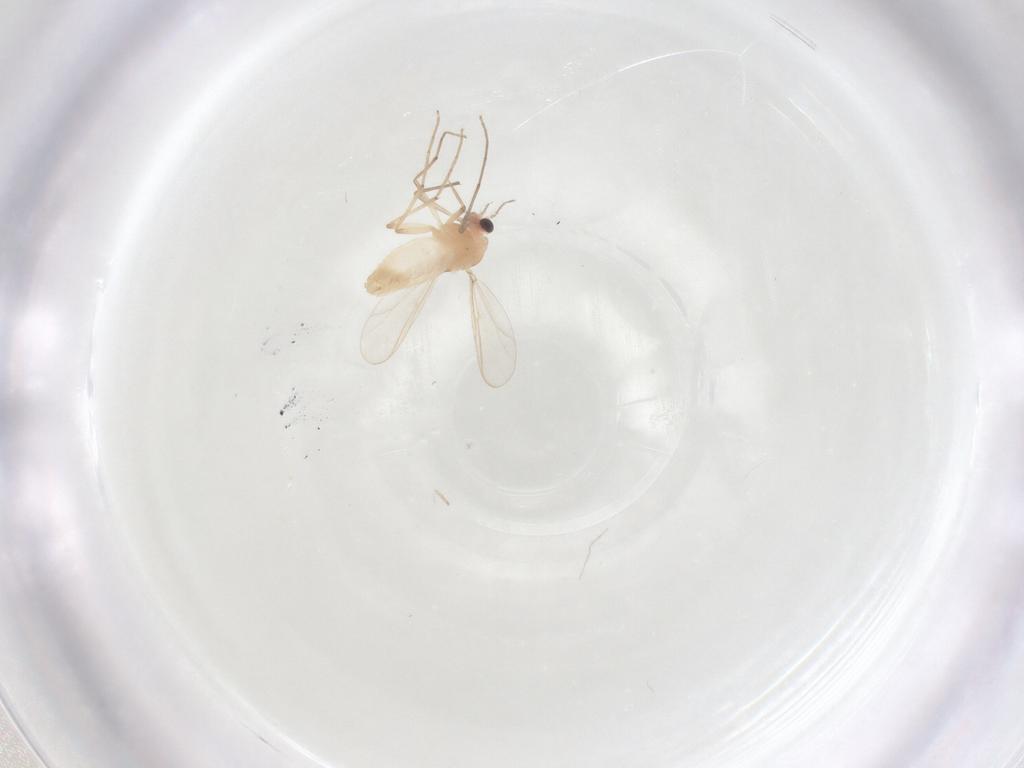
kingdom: Animalia
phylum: Arthropoda
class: Insecta
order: Diptera
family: Chironomidae
